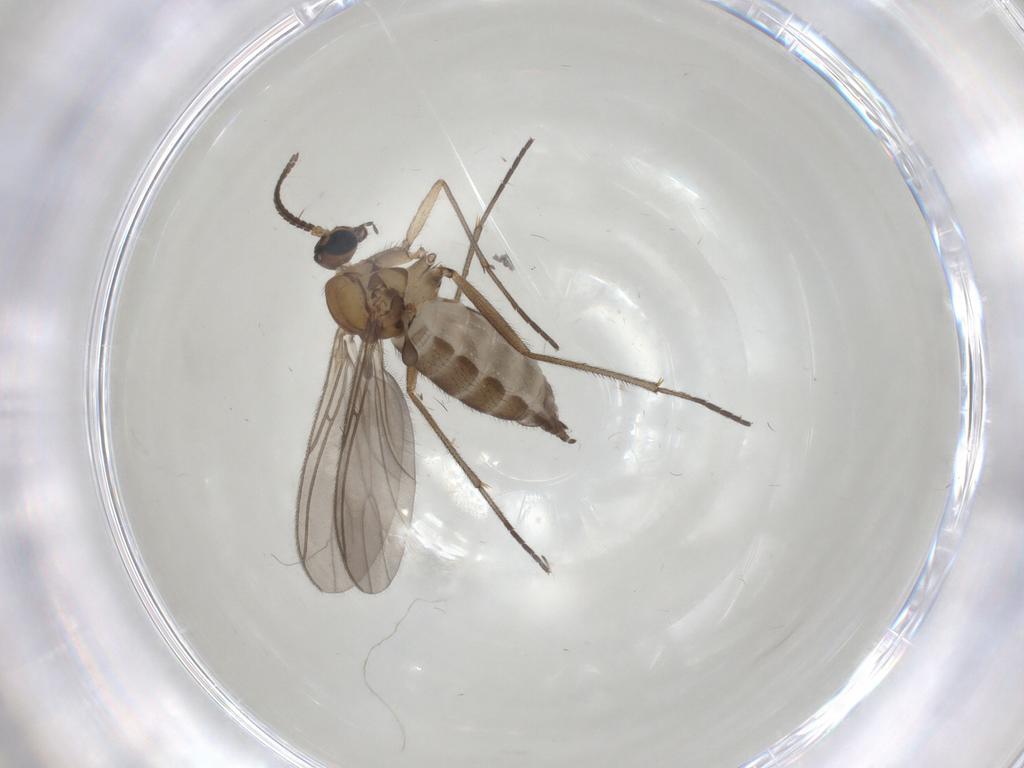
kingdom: Animalia
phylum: Arthropoda
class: Insecta
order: Diptera
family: Sciaridae
